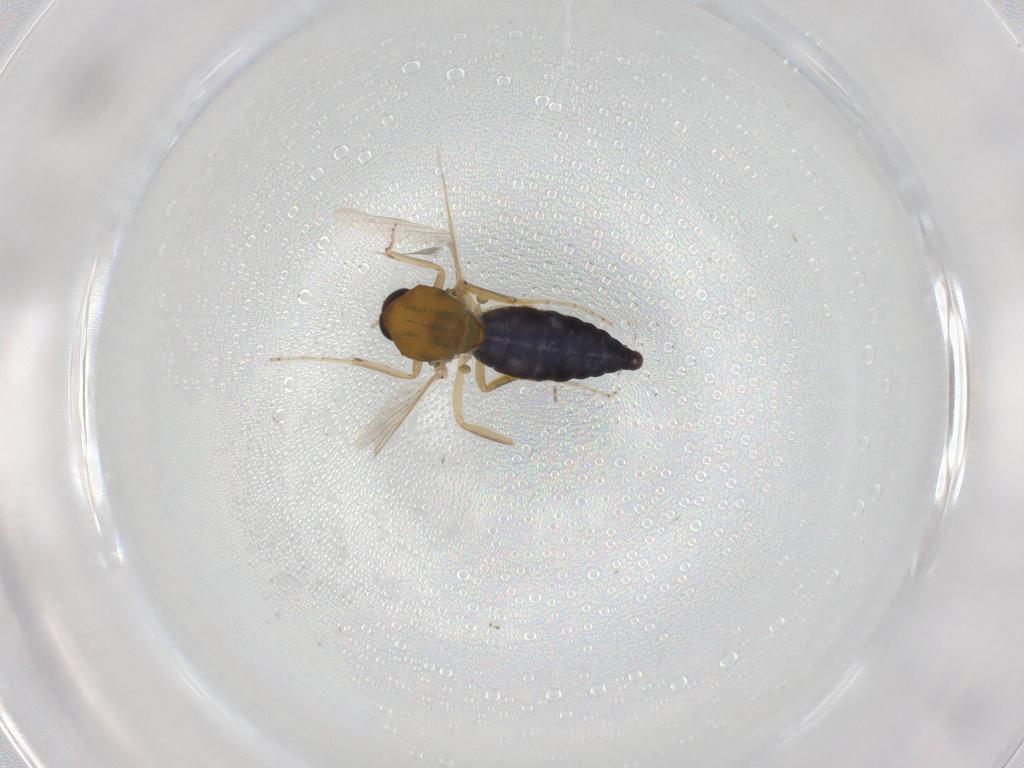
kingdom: Animalia
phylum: Arthropoda
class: Insecta
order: Diptera
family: Ceratopogonidae
